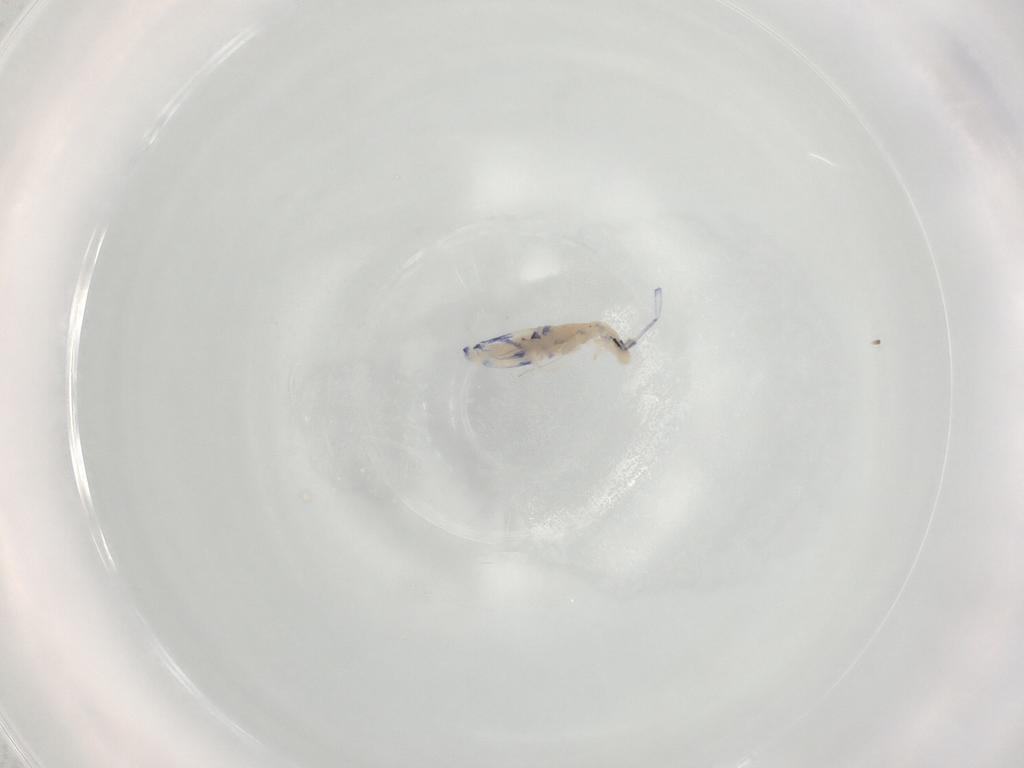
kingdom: Animalia
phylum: Arthropoda
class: Collembola
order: Entomobryomorpha
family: Entomobryidae
